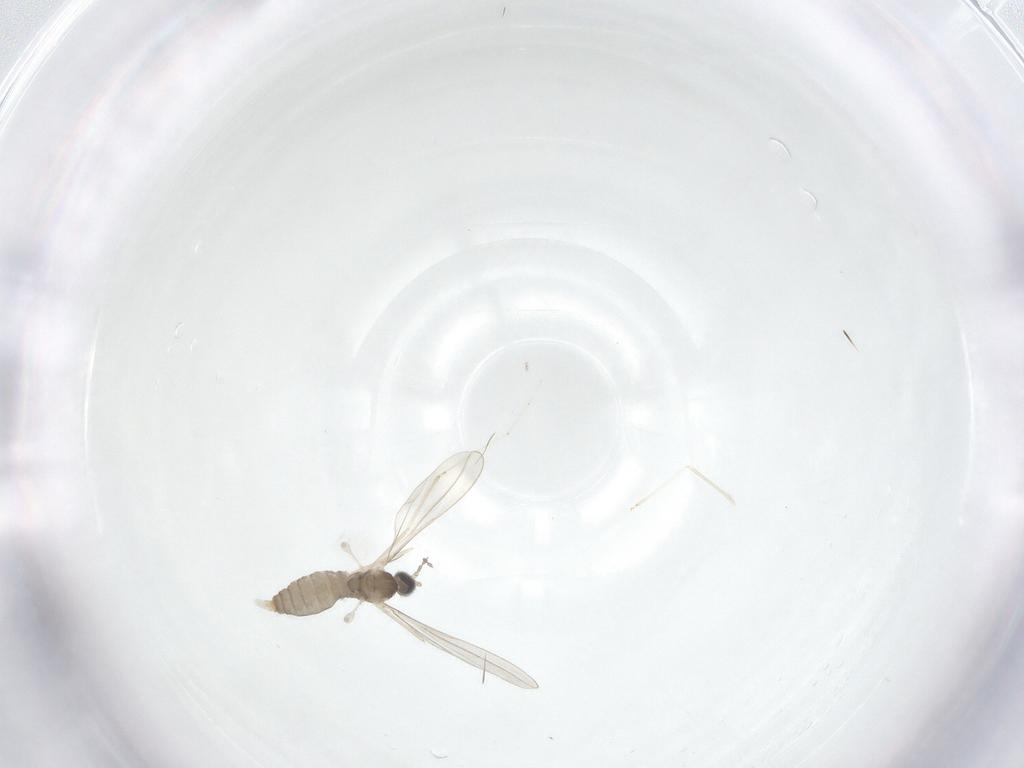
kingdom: Animalia
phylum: Arthropoda
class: Insecta
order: Diptera
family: Cecidomyiidae
